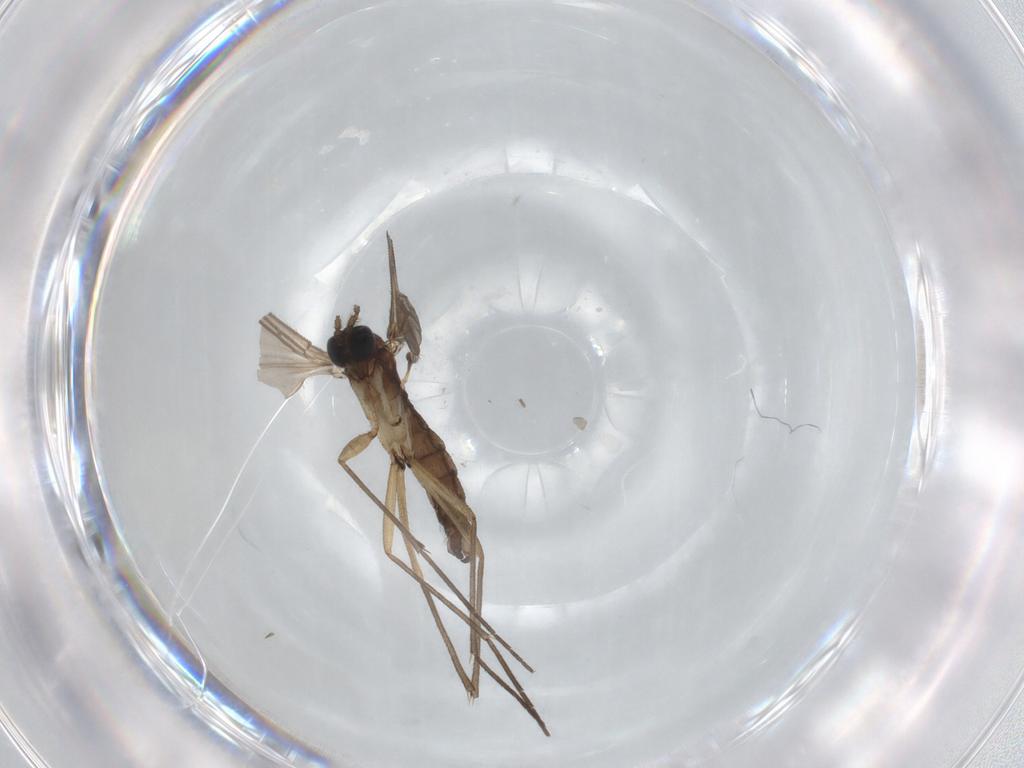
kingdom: Animalia
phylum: Arthropoda
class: Insecta
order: Diptera
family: Sciaridae
